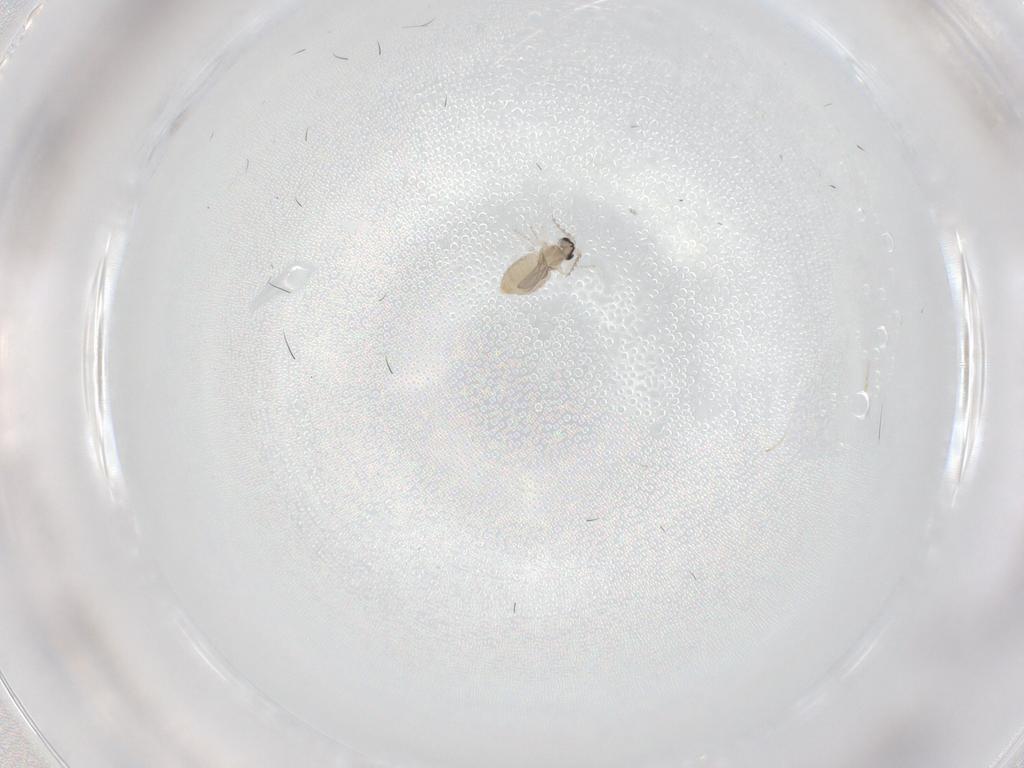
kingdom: Animalia
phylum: Arthropoda
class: Insecta
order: Diptera
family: Cecidomyiidae
